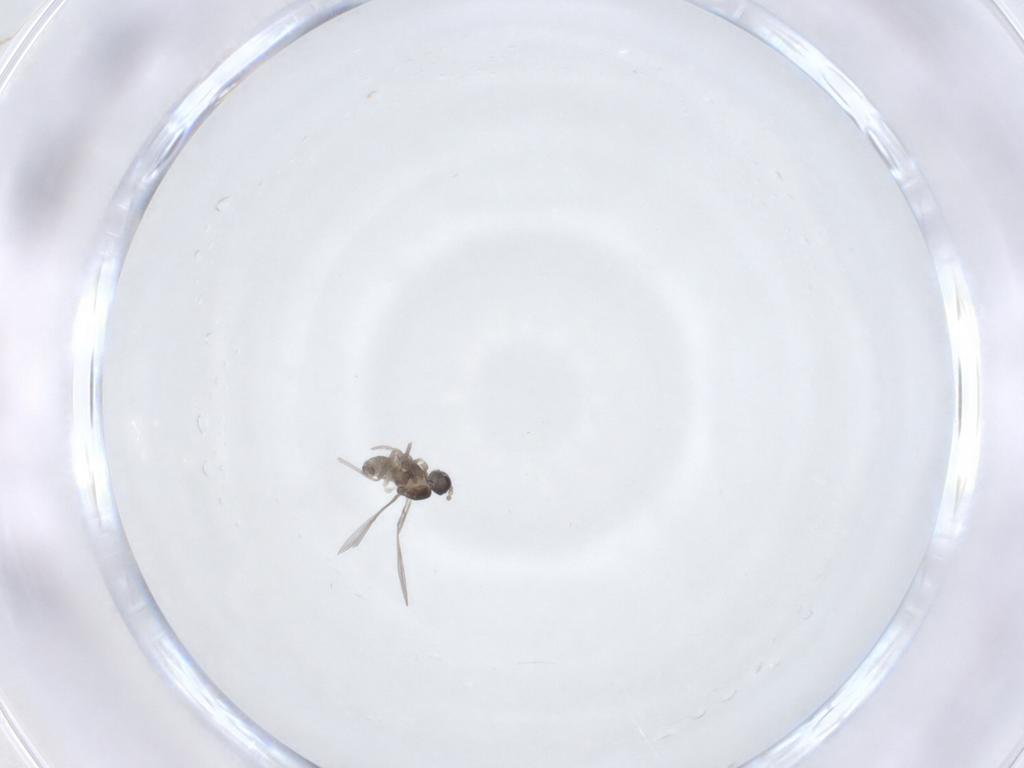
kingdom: Animalia
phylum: Arthropoda
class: Insecta
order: Diptera
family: Cecidomyiidae
